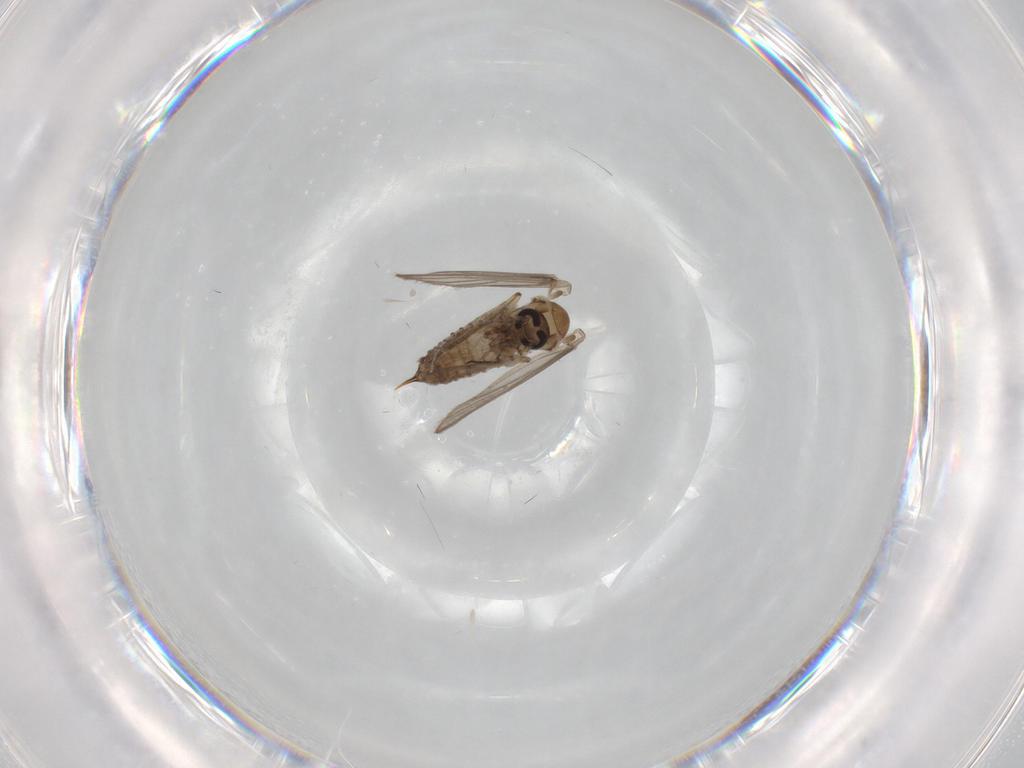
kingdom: Animalia
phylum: Arthropoda
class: Insecta
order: Diptera
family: Psychodidae
